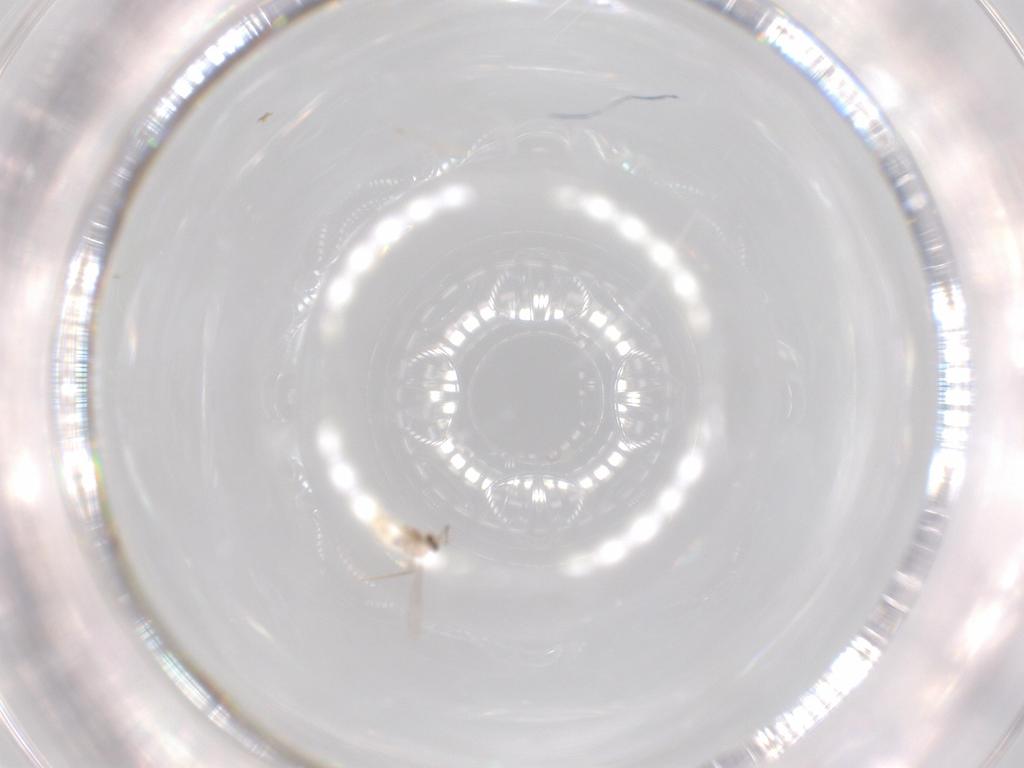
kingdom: Animalia
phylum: Arthropoda
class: Insecta
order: Diptera
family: Cecidomyiidae
